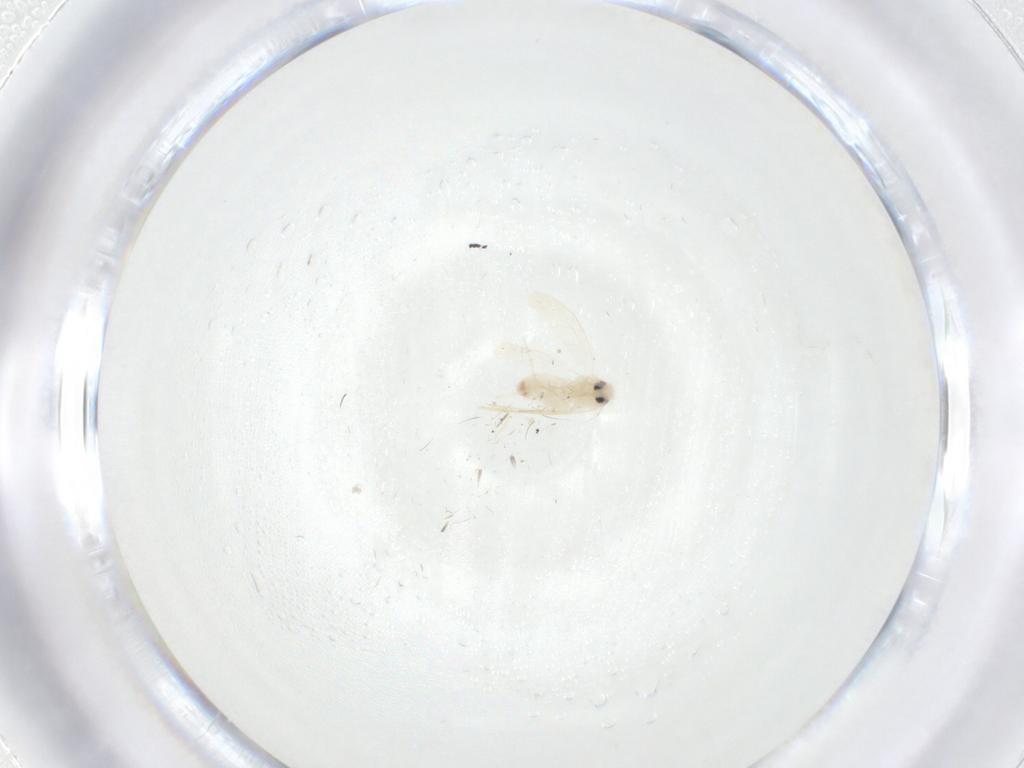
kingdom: Animalia
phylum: Arthropoda
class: Insecta
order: Hemiptera
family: Aleyrodidae
